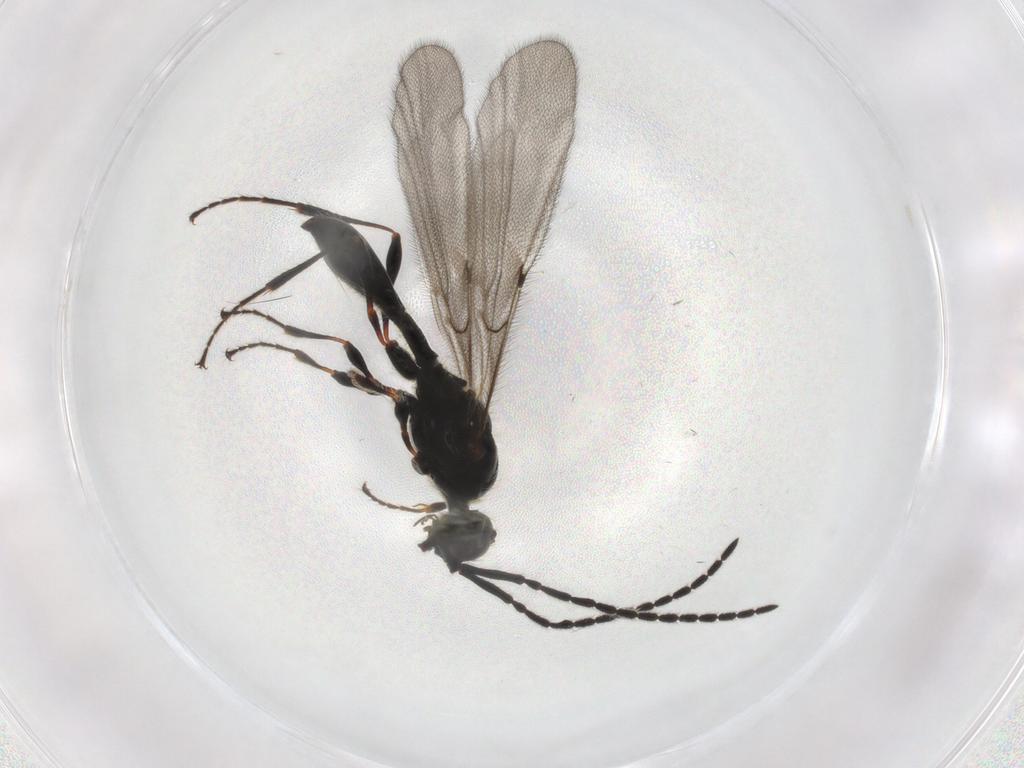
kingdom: Animalia
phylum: Arthropoda
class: Insecta
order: Hymenoptera
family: Diapriidae
